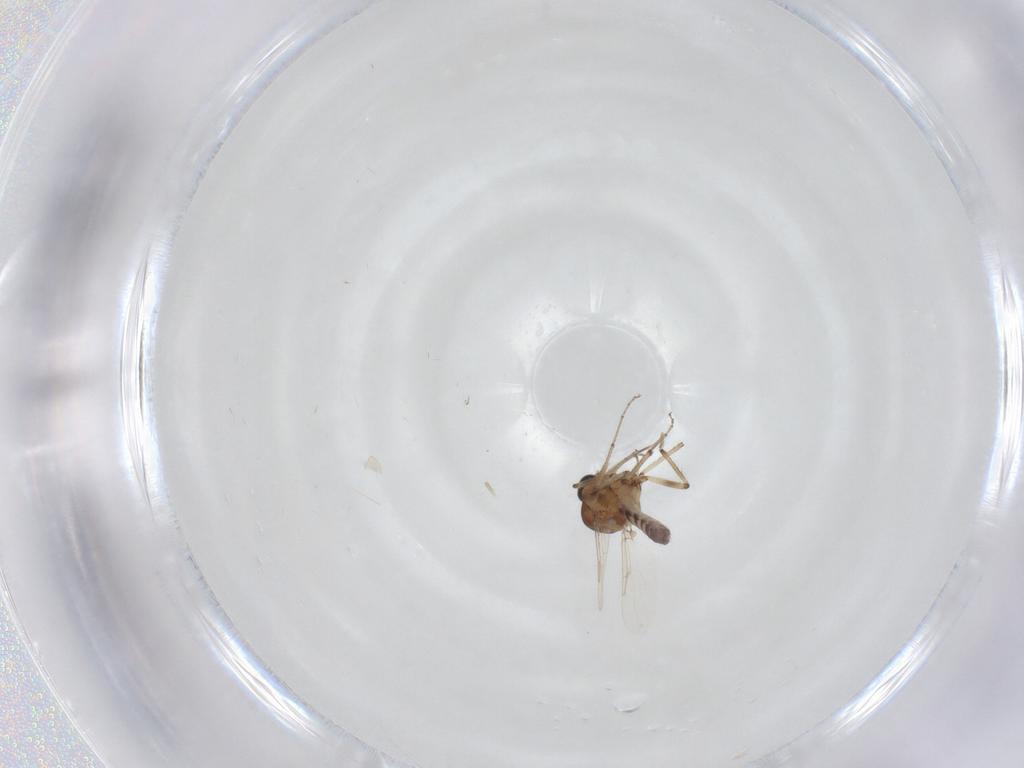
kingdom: Animalia
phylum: Arthropoda
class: Insecta
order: Diptera
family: Ceratopogonidae
